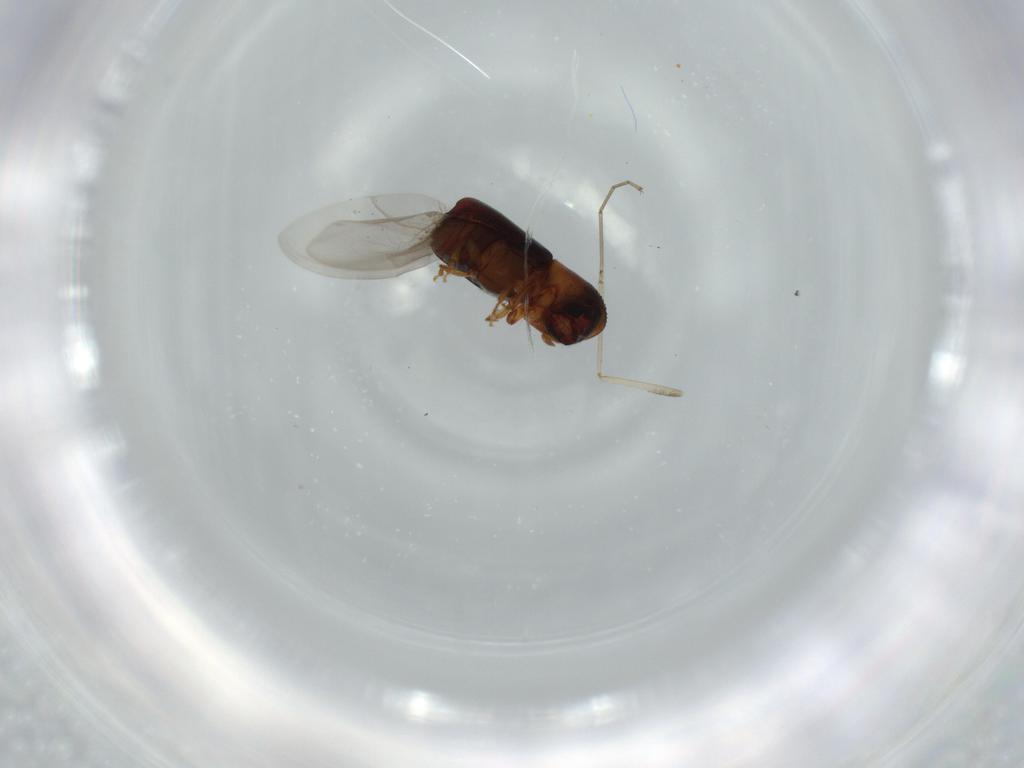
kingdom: Animalia
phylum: Arthropoda
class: Insecta
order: Coleoptera
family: Curculionidae
